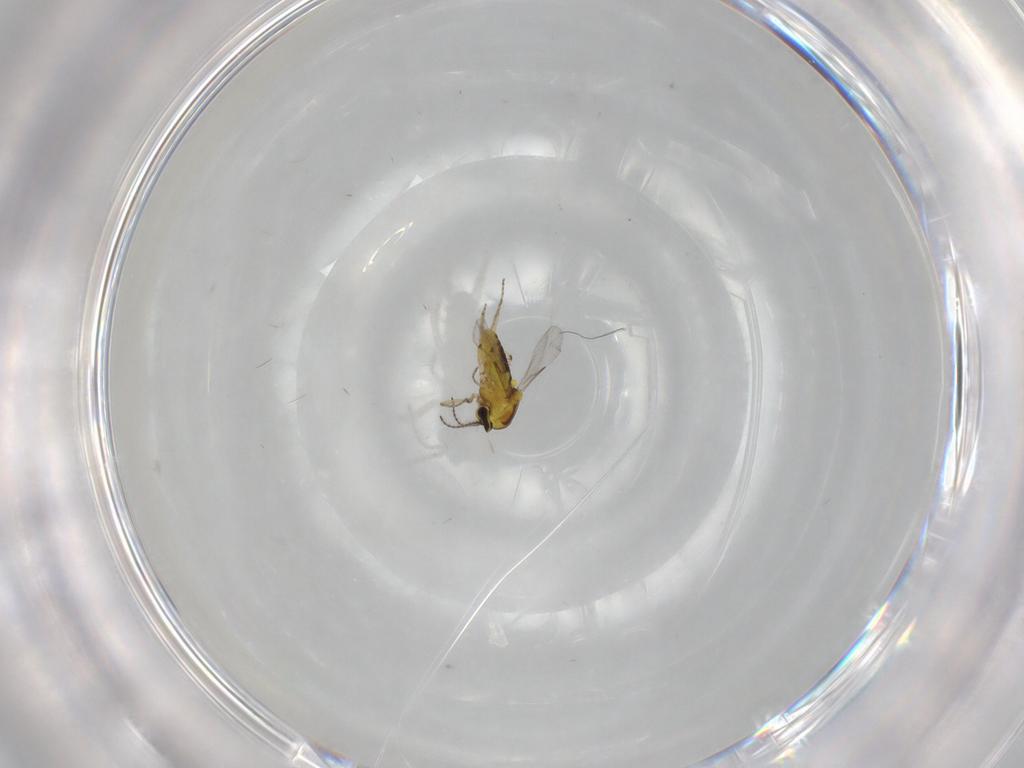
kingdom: Animalia
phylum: Arthropoda
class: Insecta
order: Diptera
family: Ceratopogonidae
